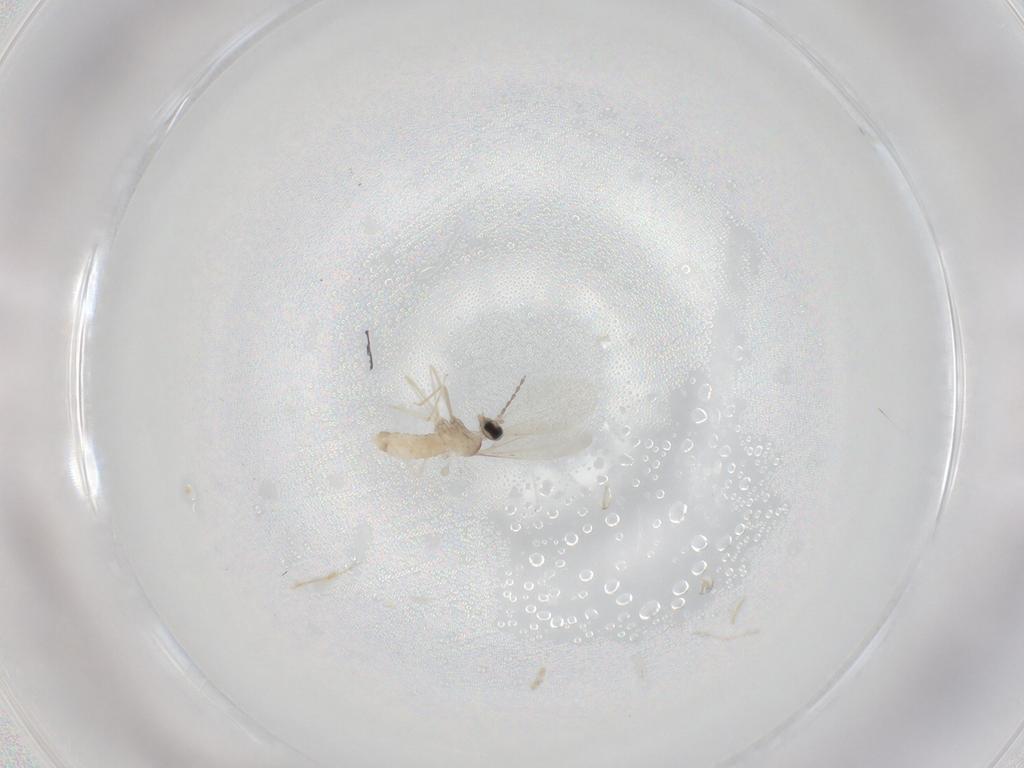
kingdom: Animalia
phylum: Arthropoda
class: Insecta
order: Diptera
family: Cecidomyiidae
